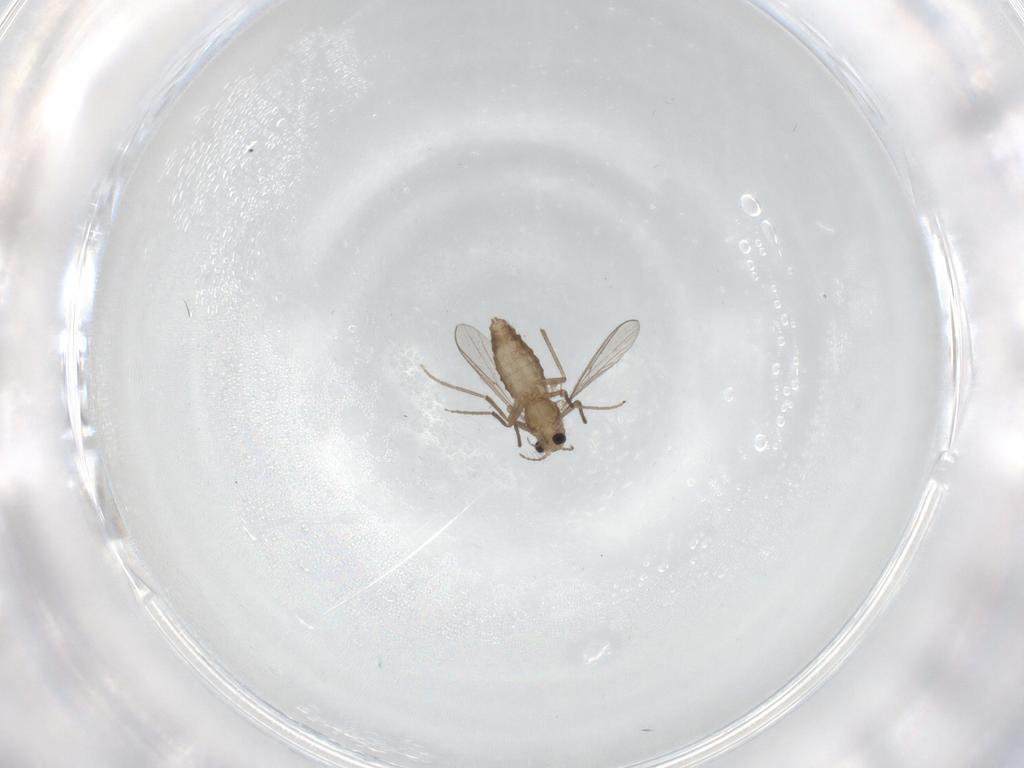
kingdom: Animalia
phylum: Arthropoda
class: Insecta
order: Diptera
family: Chironomidae
